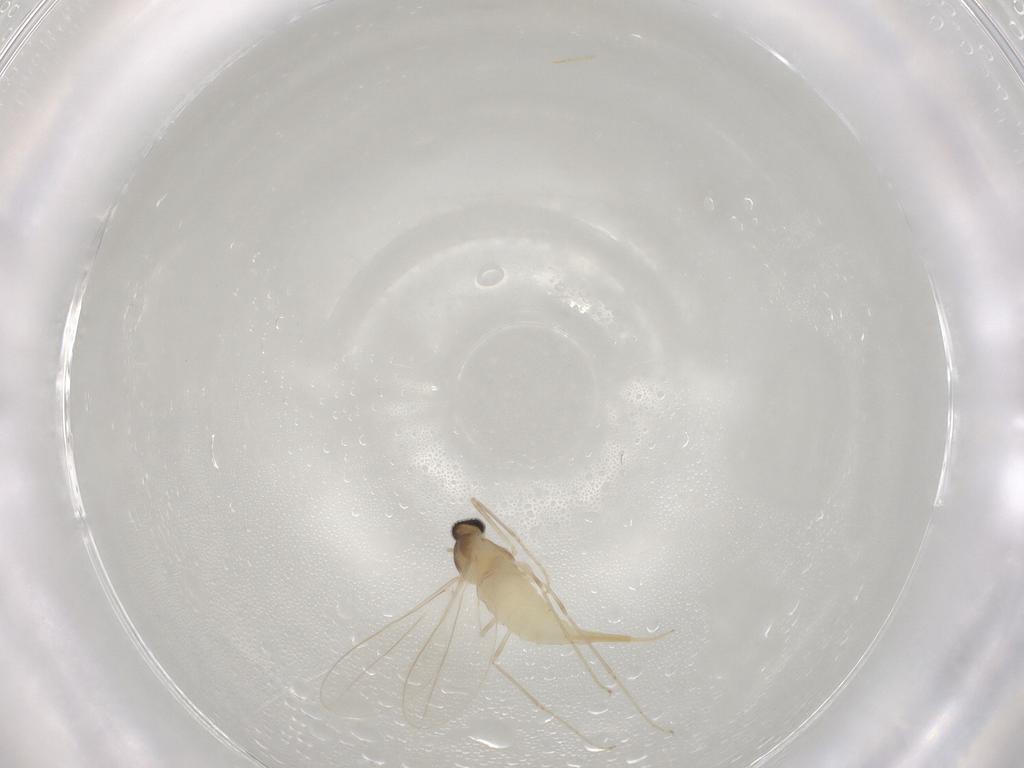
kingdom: Animalia
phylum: Arthropoda
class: Insecta
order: Diptera
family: Cecidomyiidae
